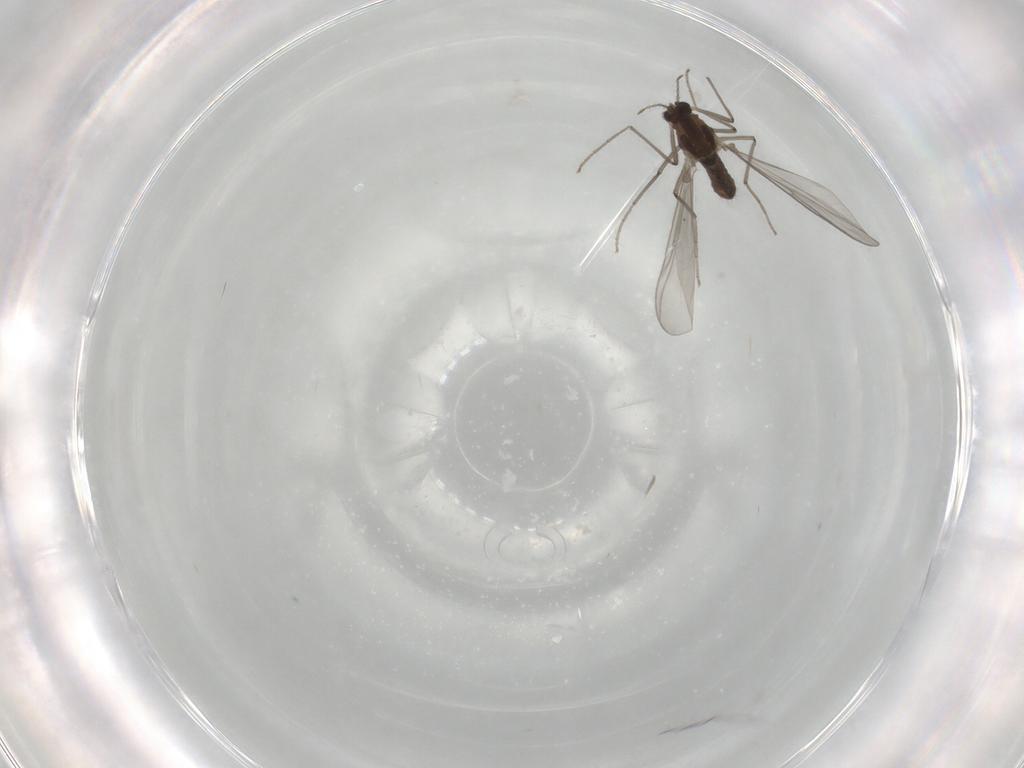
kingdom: Animalia
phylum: Arthropoda
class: Insecta
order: Diptera
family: Chironomidae
